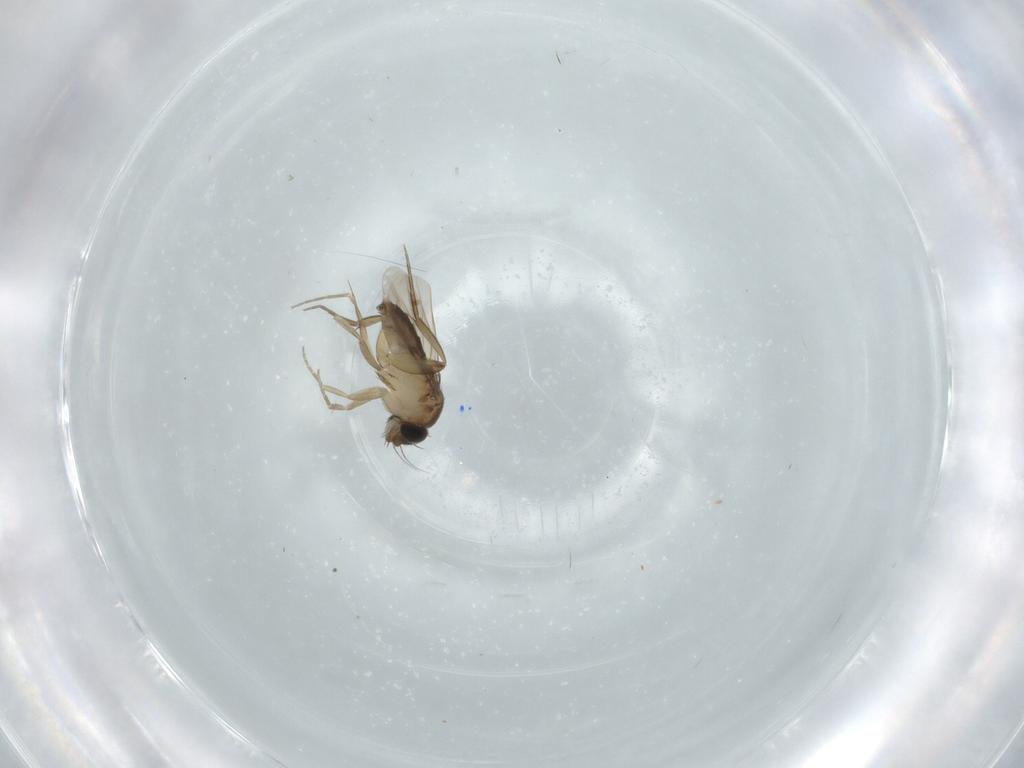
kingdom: Animalia
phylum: Arthropoda
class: Insecta
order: Diptera
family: Phoridae
